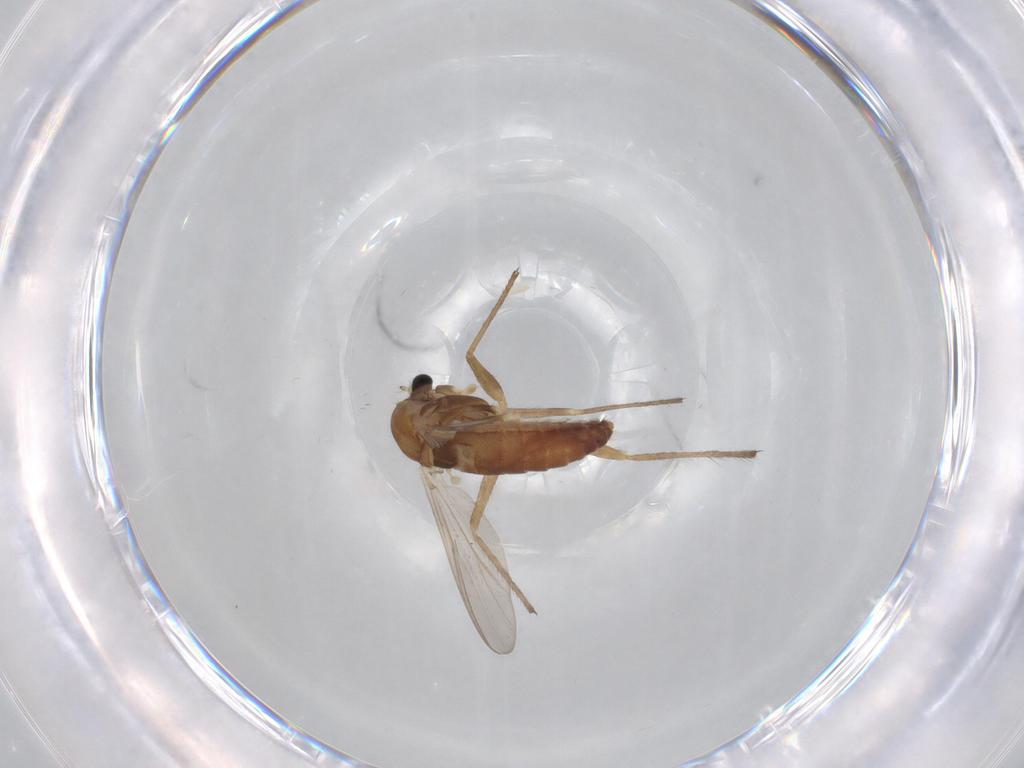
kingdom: Animalia
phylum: Arthropoda
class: Insecta
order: Diptera
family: Chironomidae
